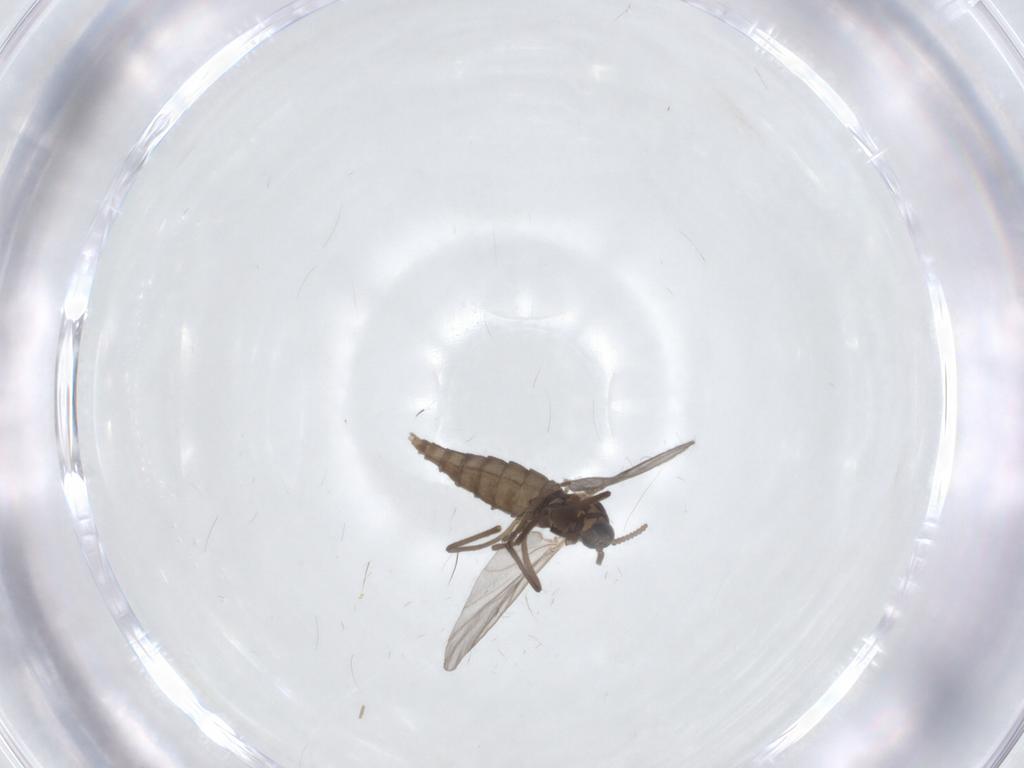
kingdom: Animalia
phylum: Arthropoda
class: Insecta
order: Diptera
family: Cecidomyiidae
